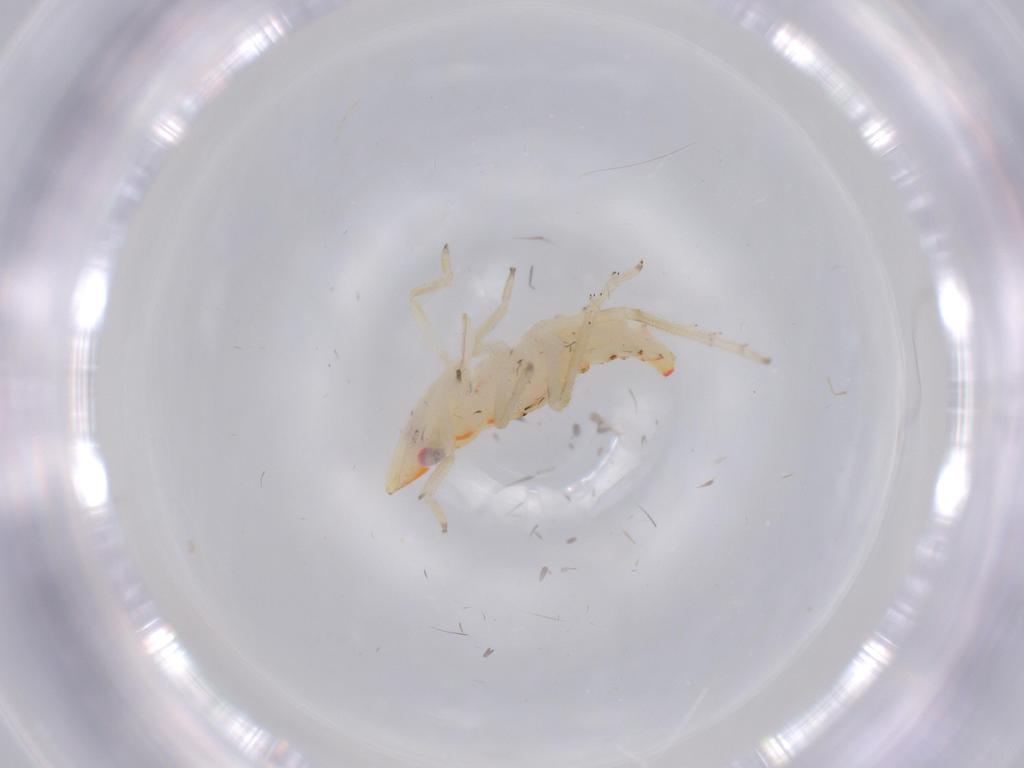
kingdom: Animalia
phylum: Arthropoda
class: Insecta
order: Hemiptera
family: Tropiduchidae
